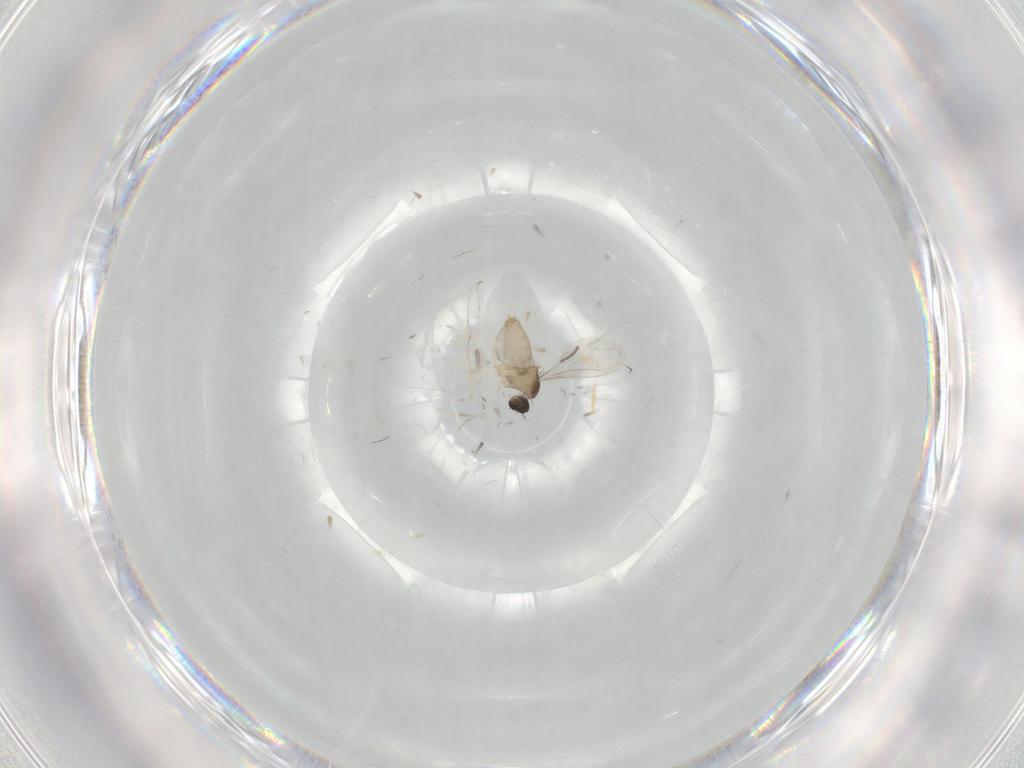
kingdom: Animalia
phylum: Arthropoda
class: Insecta
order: Diptera
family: Cecidomyiidae
